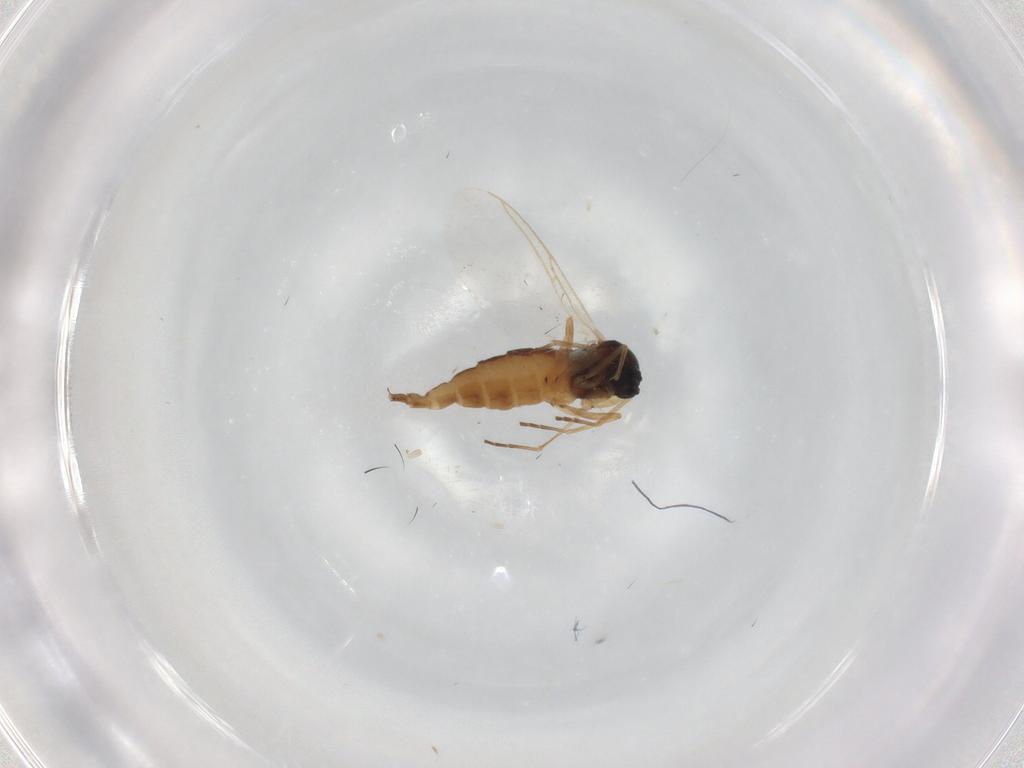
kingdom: Animalia
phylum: Arthropoda
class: Insecta
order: Diptera
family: Sciaridae
